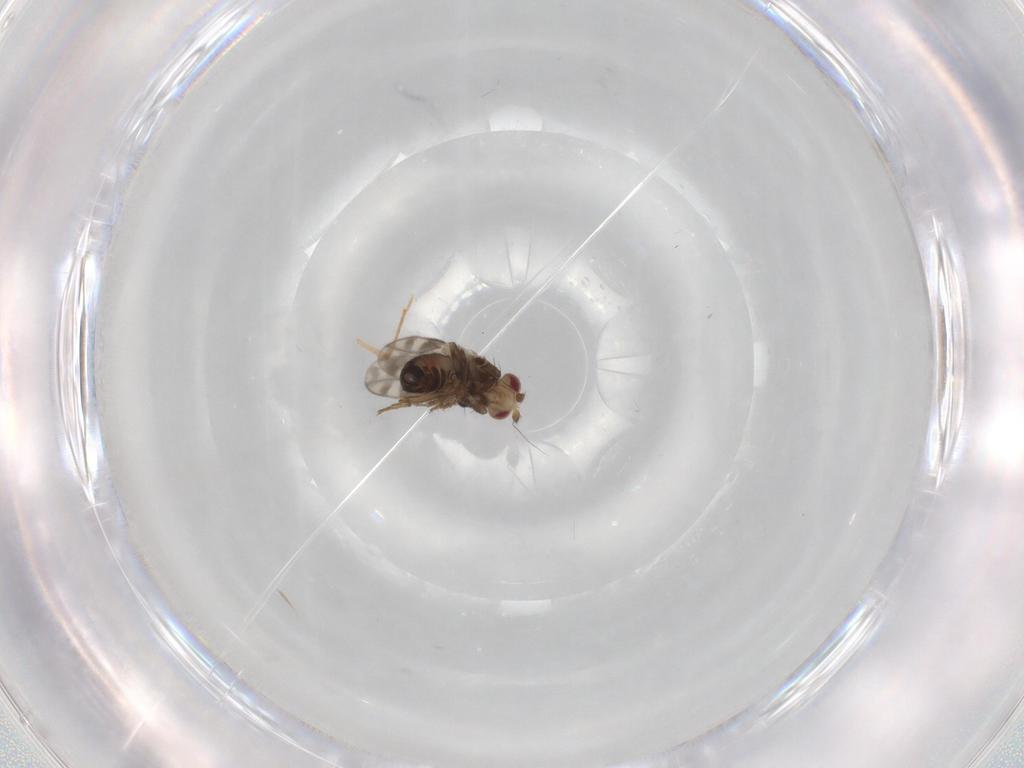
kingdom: Animalia
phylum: Arthropoda
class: Insecta
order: Diptera
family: Sphaeroceridae
